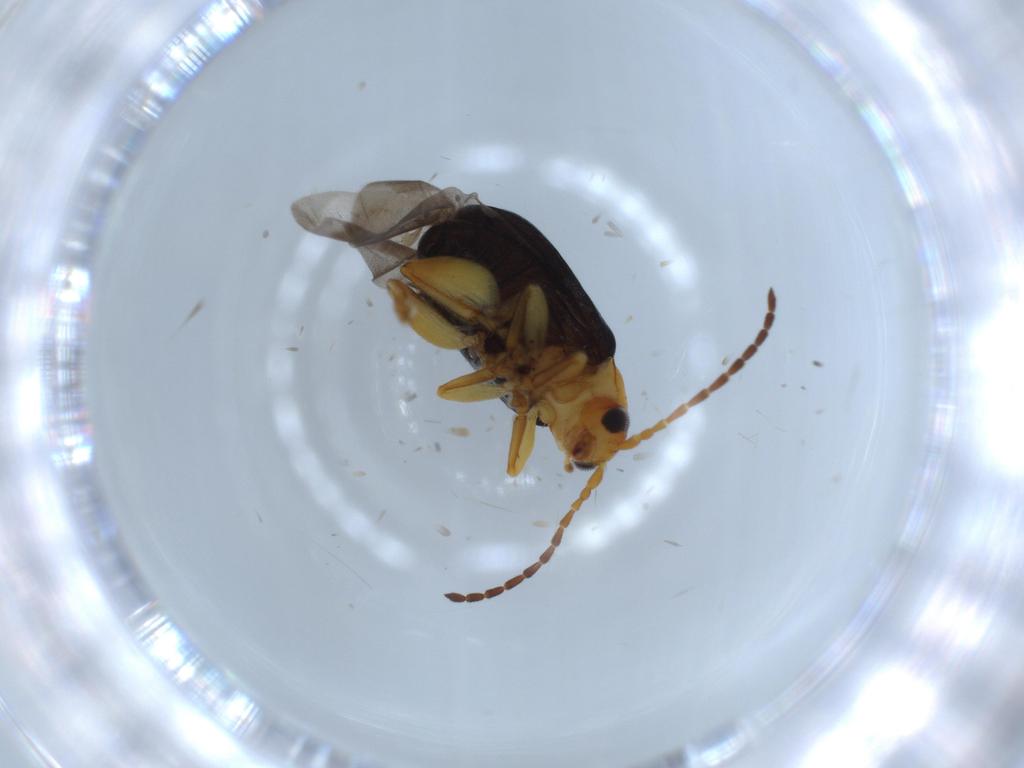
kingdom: Animalia
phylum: Arthropoda
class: Insecta
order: Coleoptera
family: Chrysomelidae
